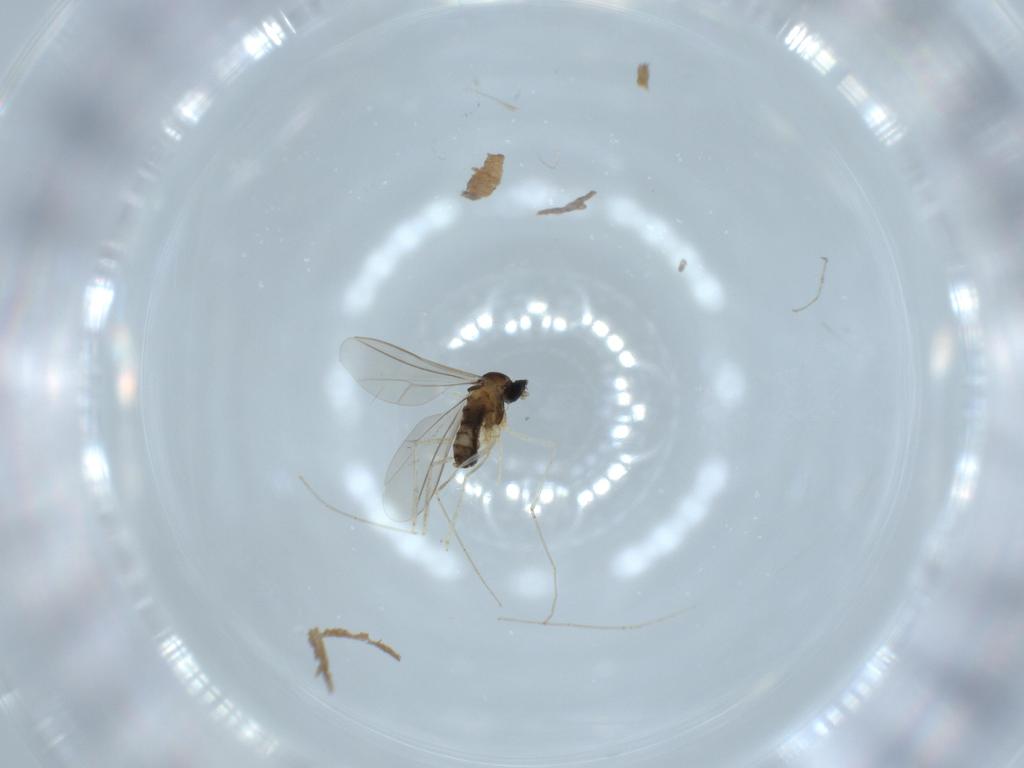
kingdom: Animalia
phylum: Arthropoda
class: Insecta
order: Diptera
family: Cecidomyiidae
